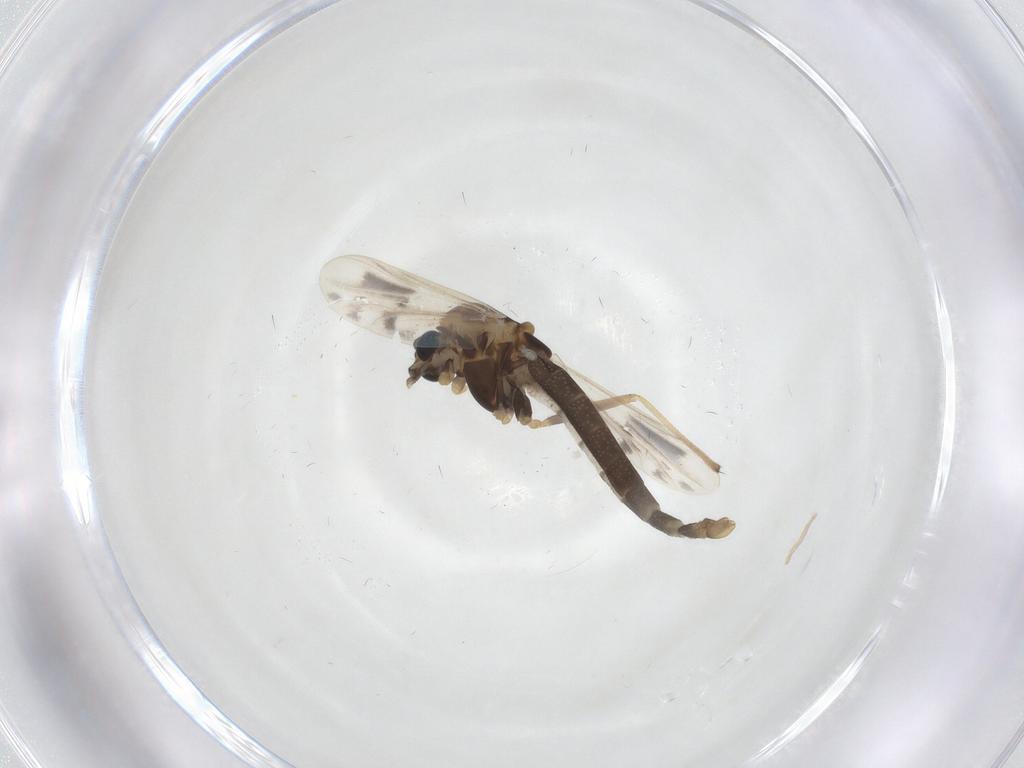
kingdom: Animalia
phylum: Arthropoda
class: Insecta
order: Diptera
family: Chironomidae
